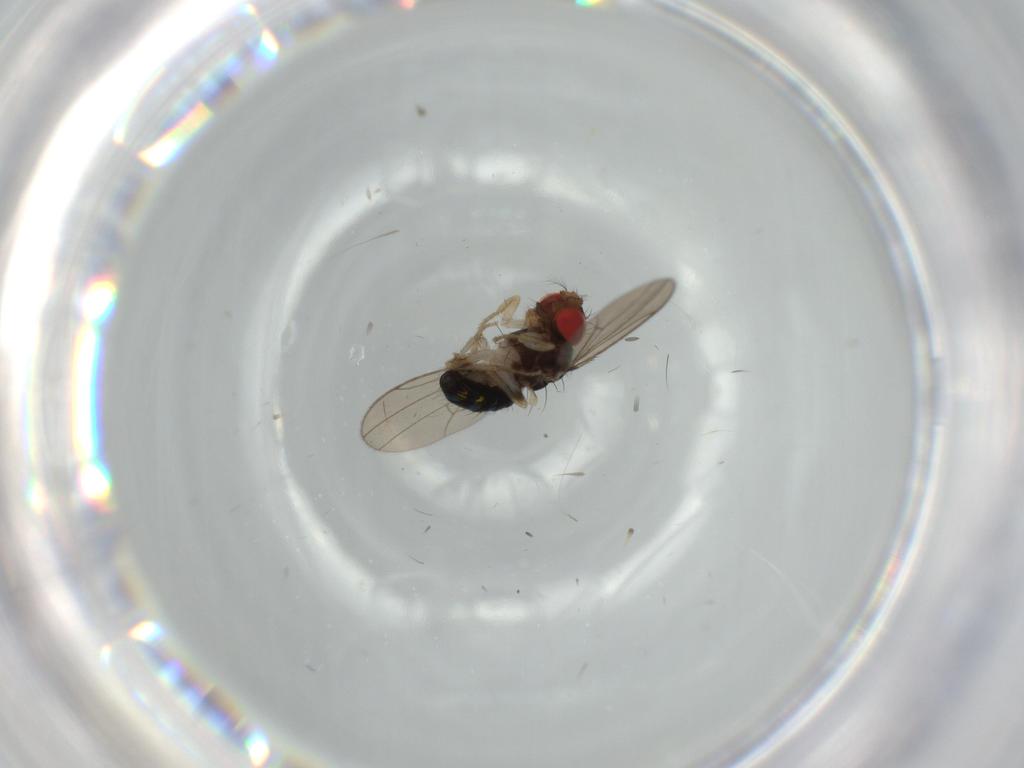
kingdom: Animalia
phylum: Arthropoda
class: Insecta
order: Diptera
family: Drosophilidae
